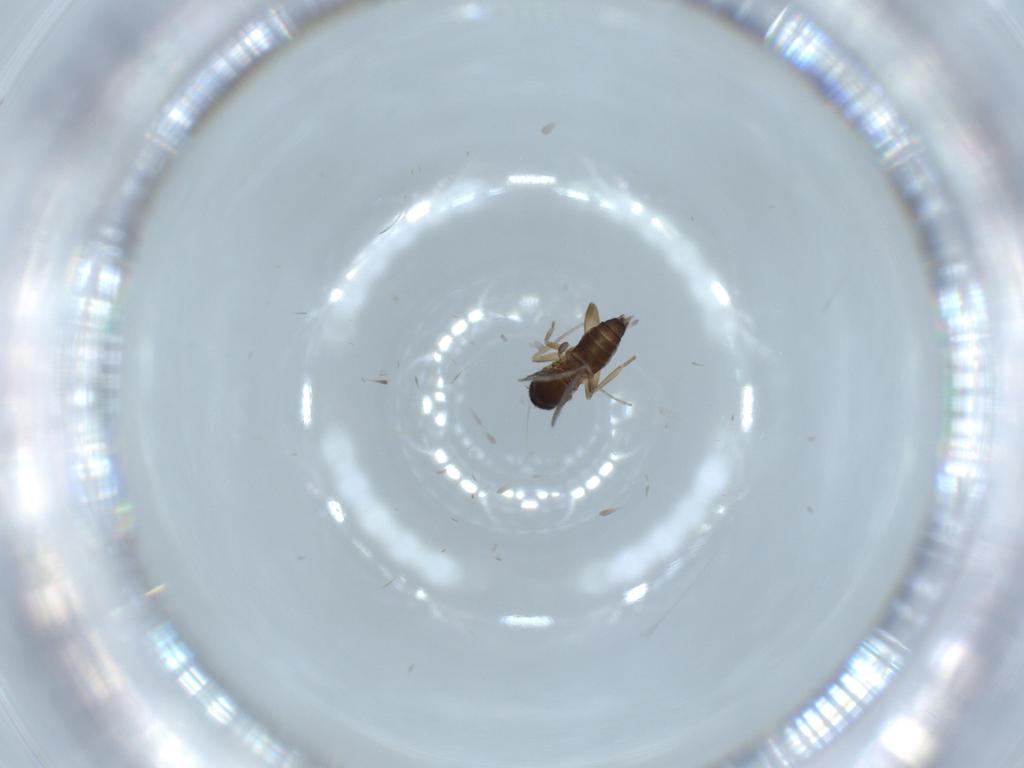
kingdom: Animalia
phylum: Arthropoda
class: Insecta
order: Diptera
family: Phoridae
